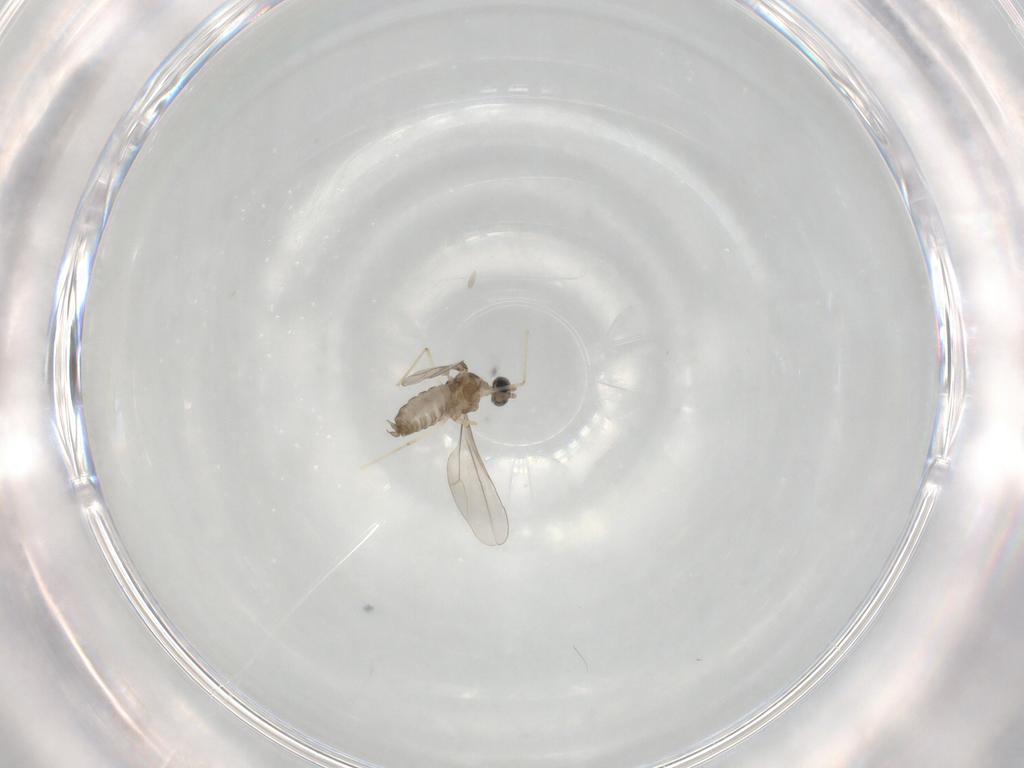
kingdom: Animalia
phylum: Arthropoda
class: Insecta
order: Diptera
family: Cecidomyiidae
